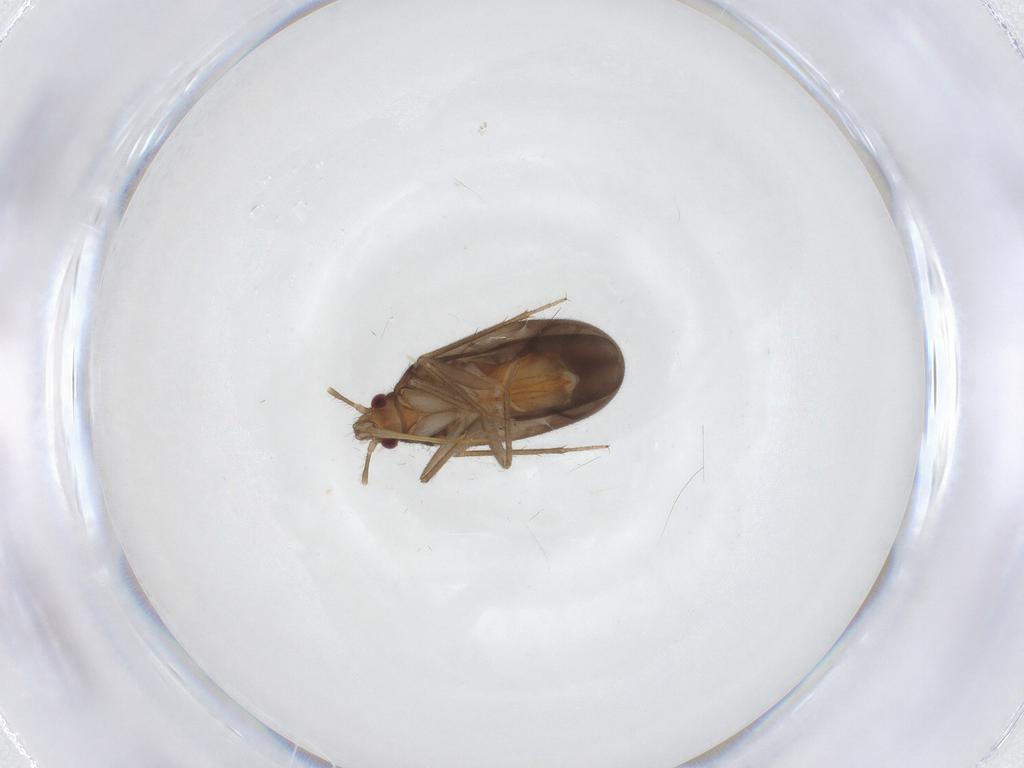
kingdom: Animalia
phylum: Arthropoda
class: Insecta
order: Hemiptera
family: Ceratocombidae
